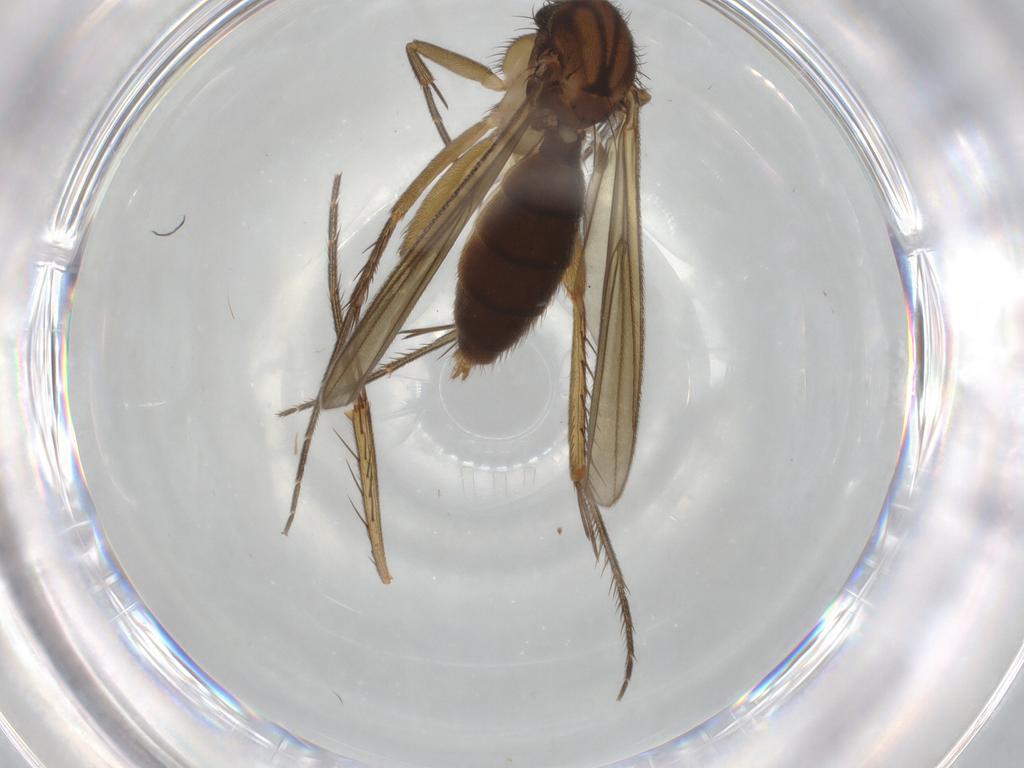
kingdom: Animalia
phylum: Arthropoda
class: Insecta
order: Diptera
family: Mycetophilidae
